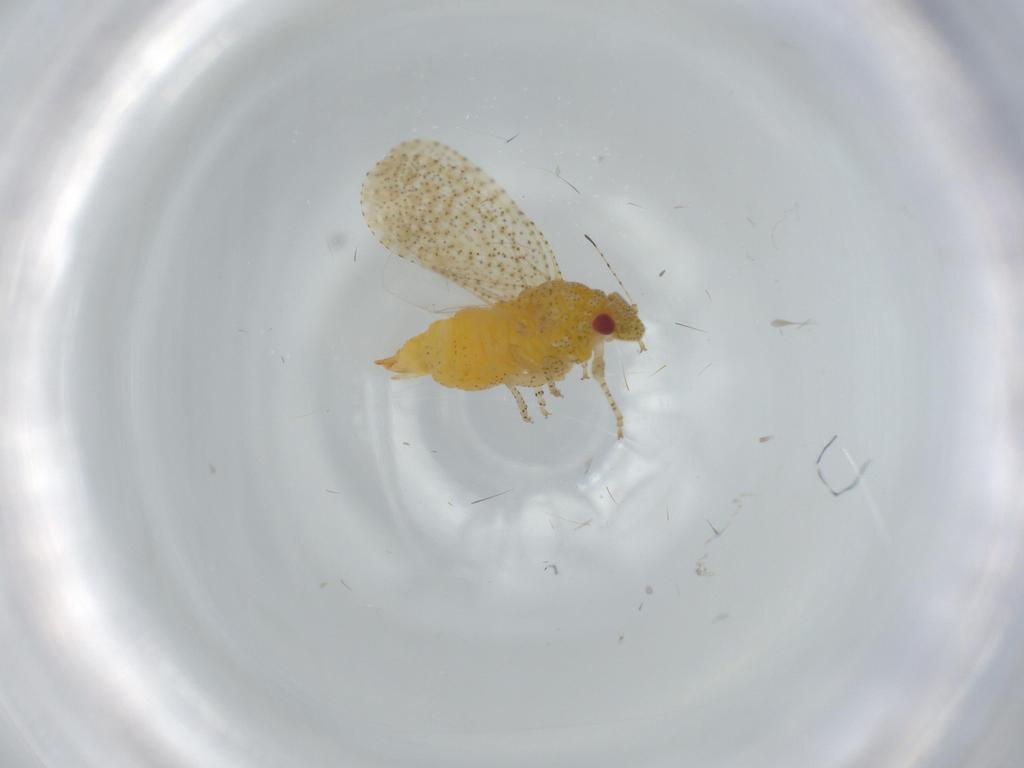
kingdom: Animalia
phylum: Arthropoda
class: Insecta
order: Hemiptera
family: Psyllidae
